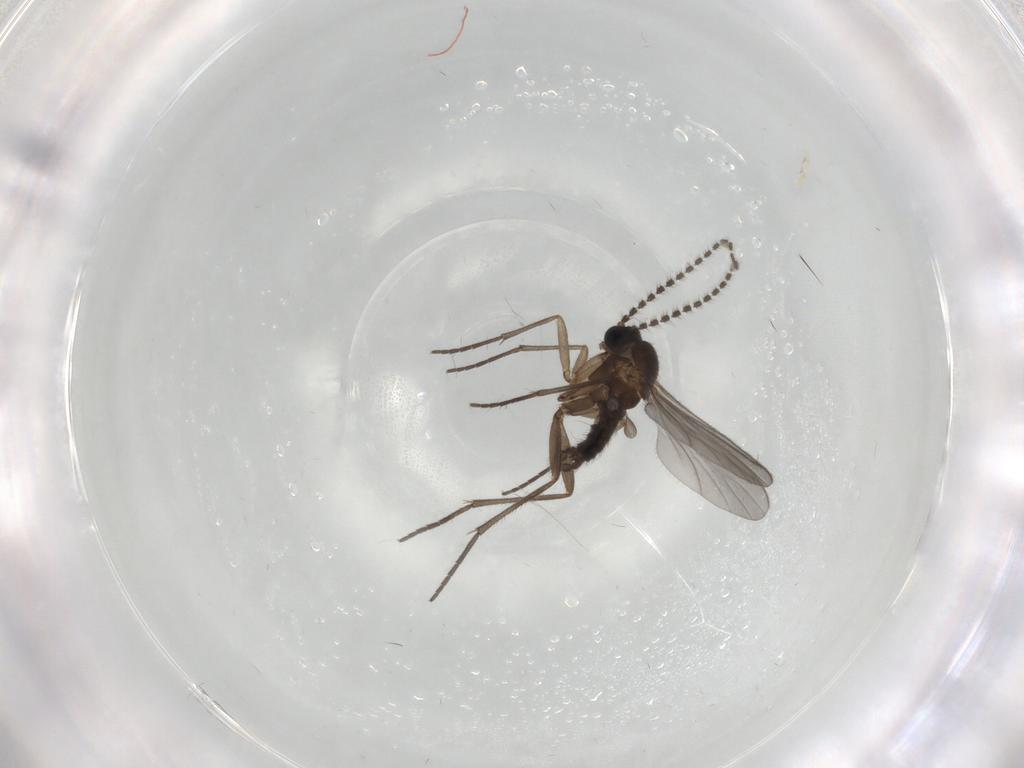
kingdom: Animalia
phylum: Arthropoda
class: Insecta
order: Diptera
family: Sciaridae
